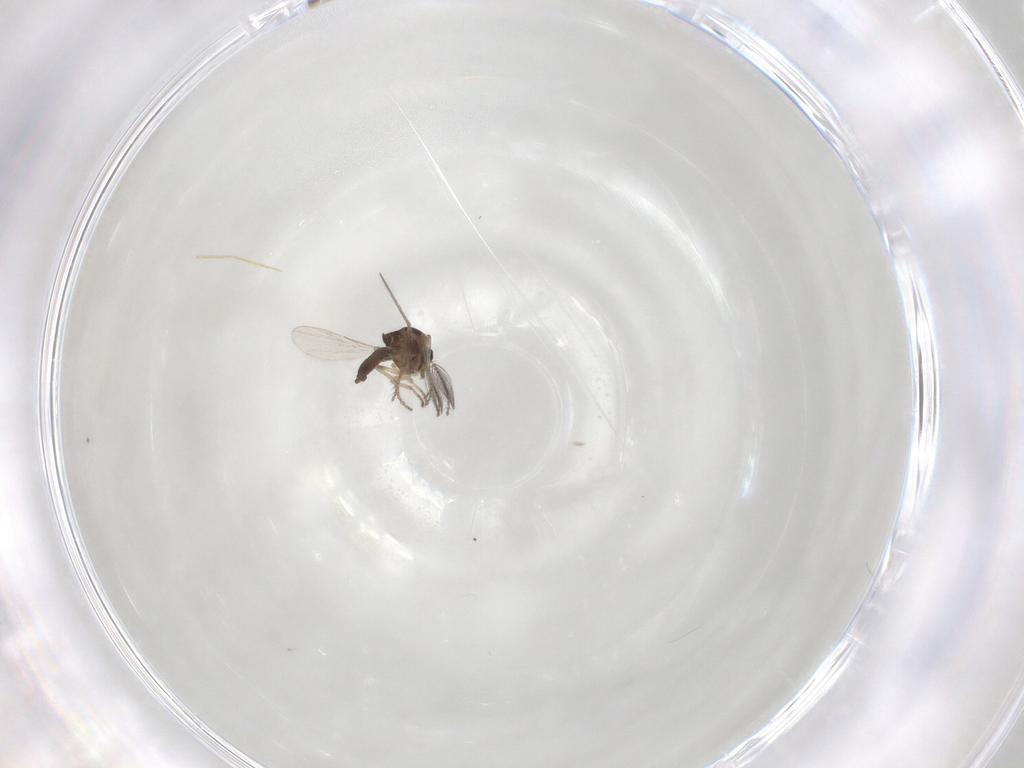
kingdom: Animalia
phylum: Arthropoda
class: Insecta
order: Diptera
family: Ceratopogonidae
